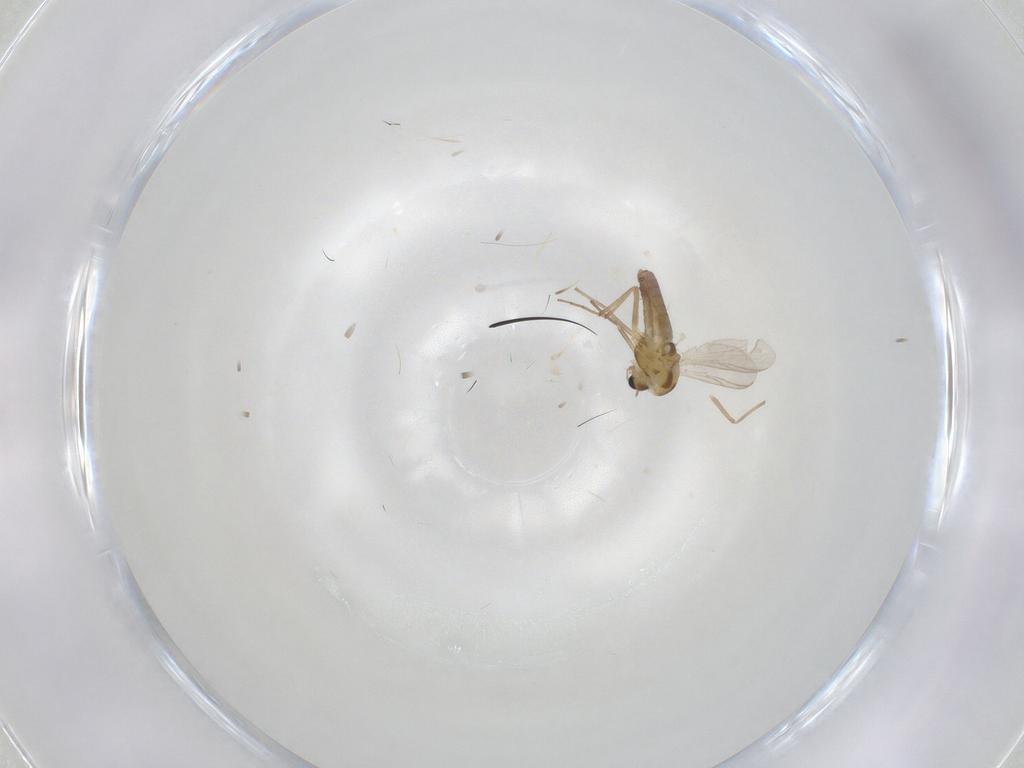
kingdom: Animalia
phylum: Arthropoda
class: Insecta
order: Diptera
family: Chironomidae
